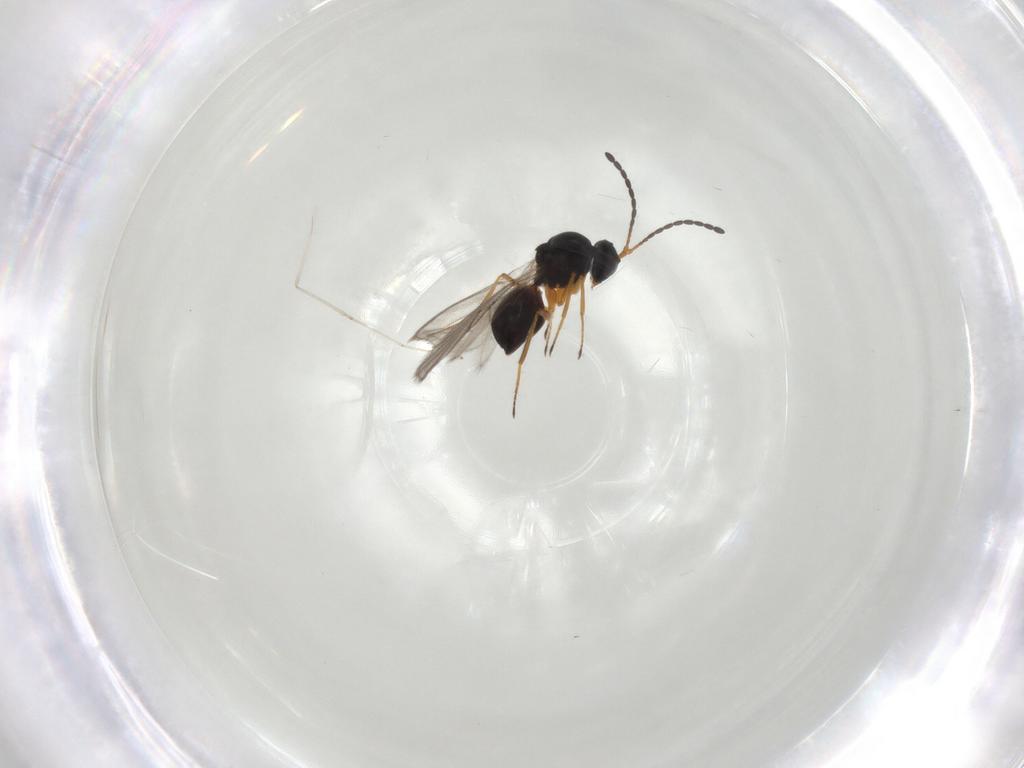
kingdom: Animalia
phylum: Arthropoda
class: Insecta
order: Hymenoptera
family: Figitidae
